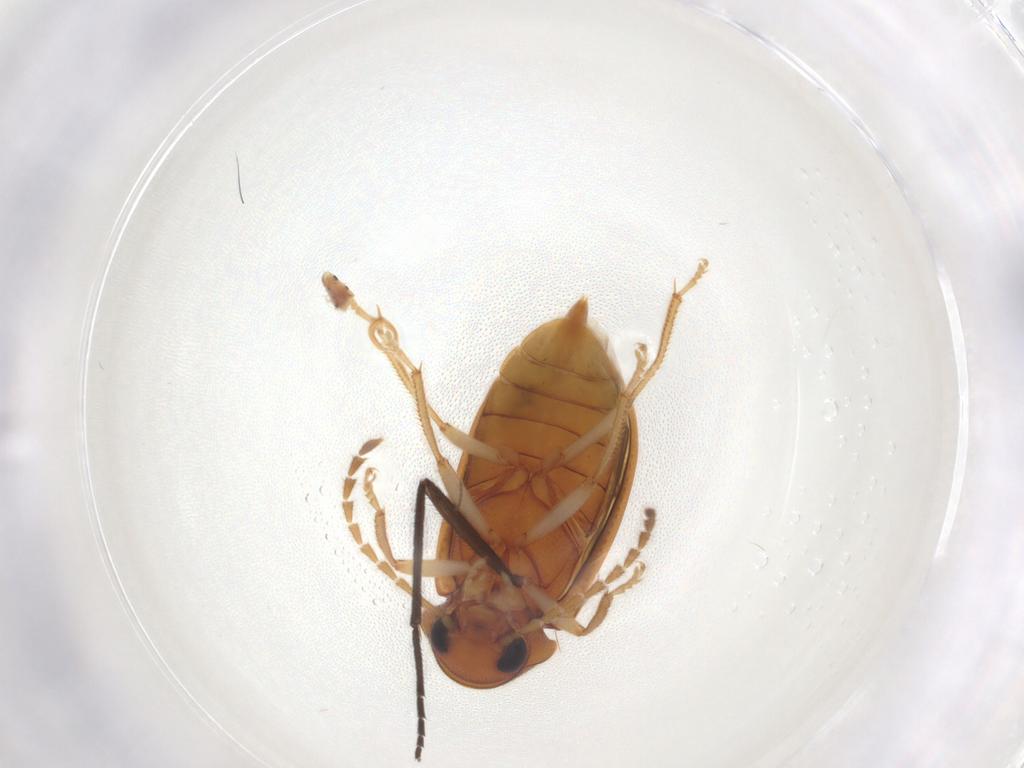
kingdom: Animalia
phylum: Arthropoda
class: Insecta
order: Coleoptera
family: Ptilodactylidae
